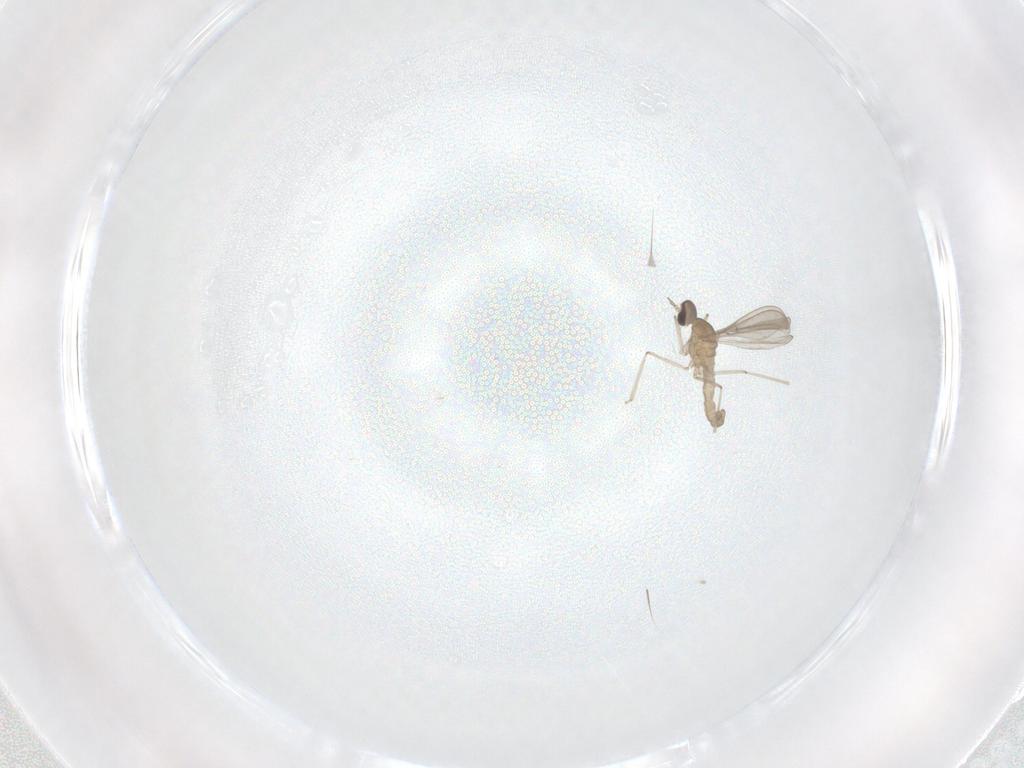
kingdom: Animalia
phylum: Arthropoda
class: Insecta
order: Diptera
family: Cecidomyiidae
